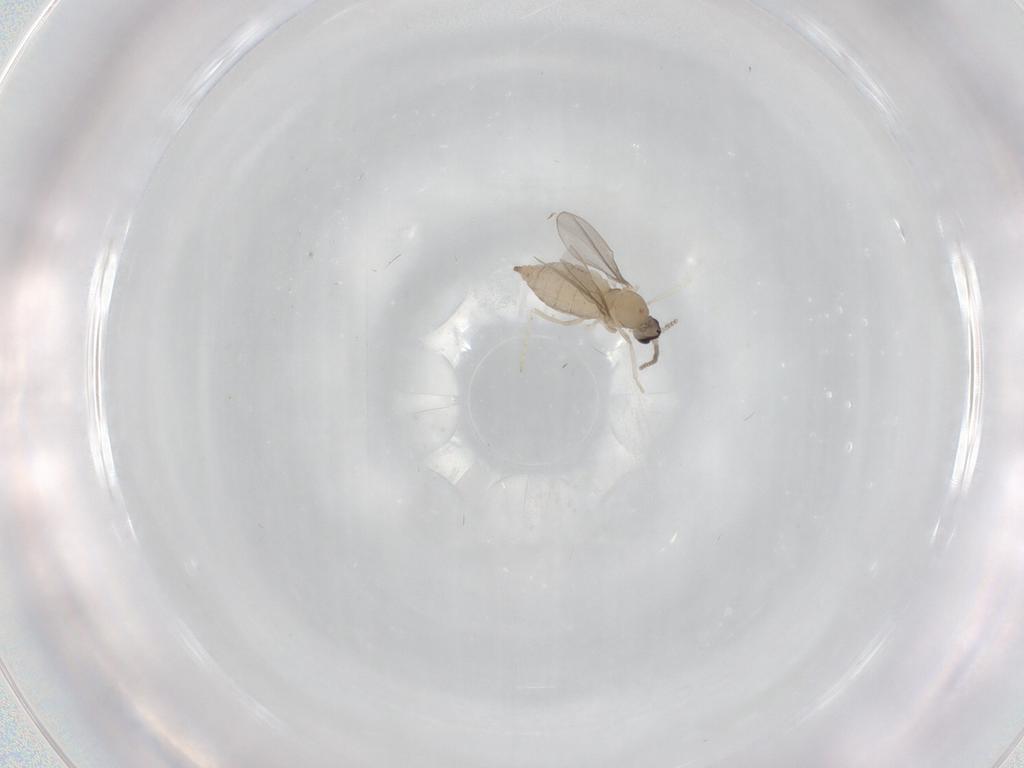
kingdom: Animalia
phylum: Arthropoda
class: Insecta
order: Diptera
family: Cecidomyiidae
